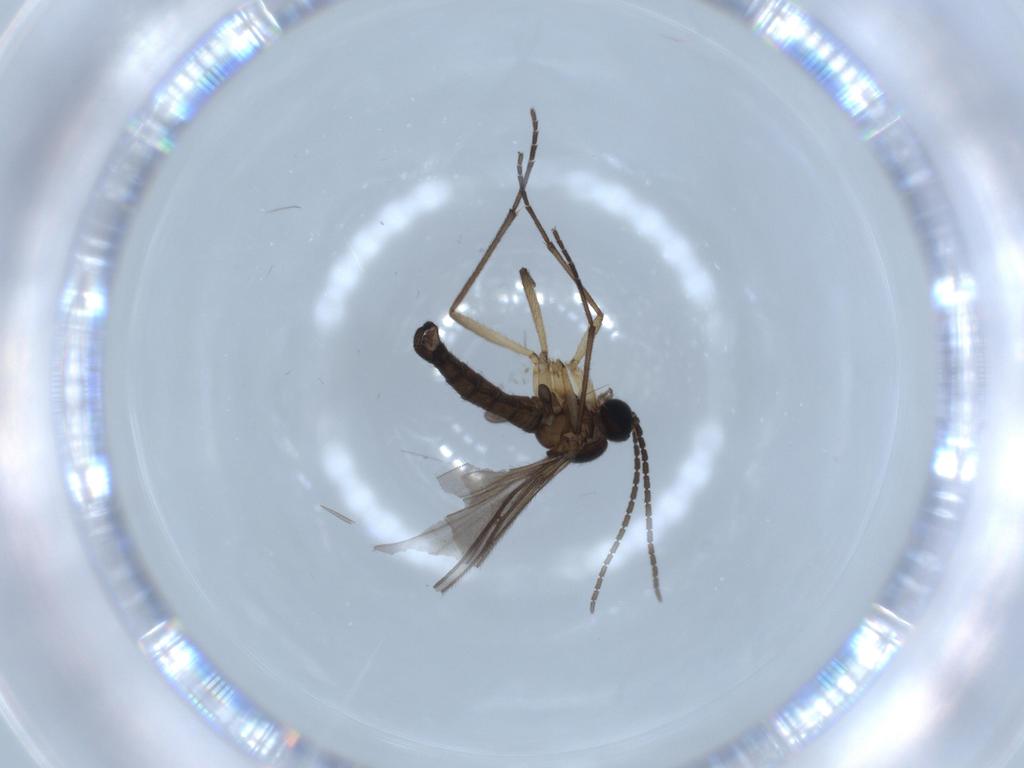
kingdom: Animalia
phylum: Arthropoda
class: Insecta
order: Diptera
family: Sciaridae
